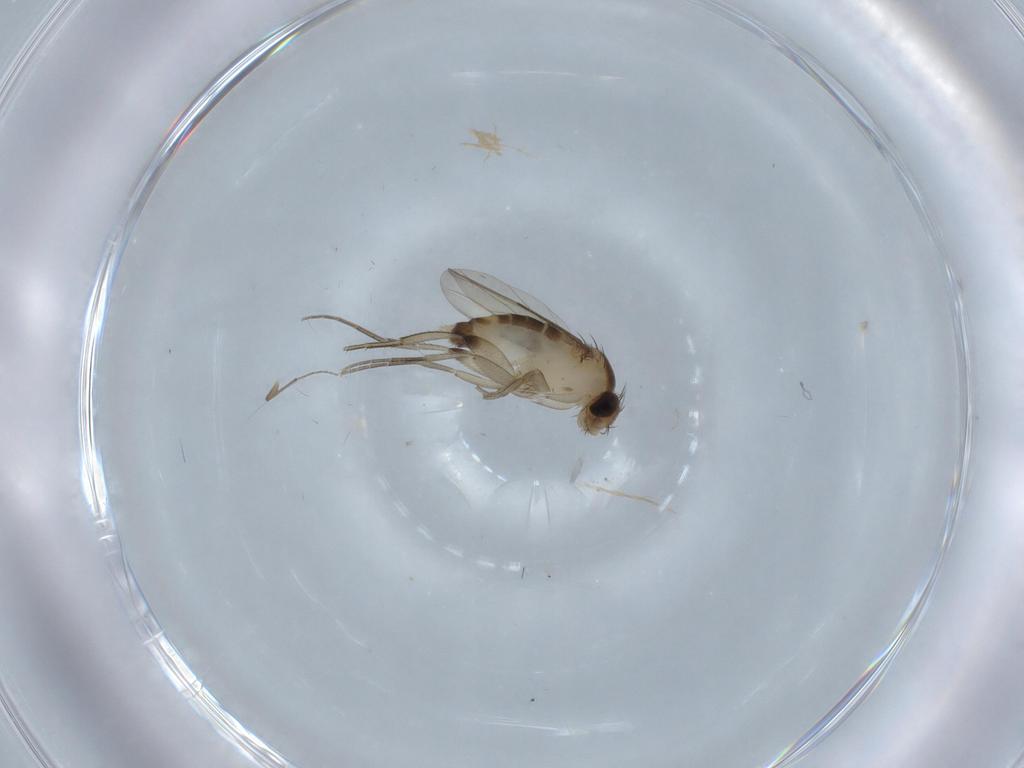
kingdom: Animalia
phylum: Arthropoda
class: Insecta
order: Diptera
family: Phoridae
